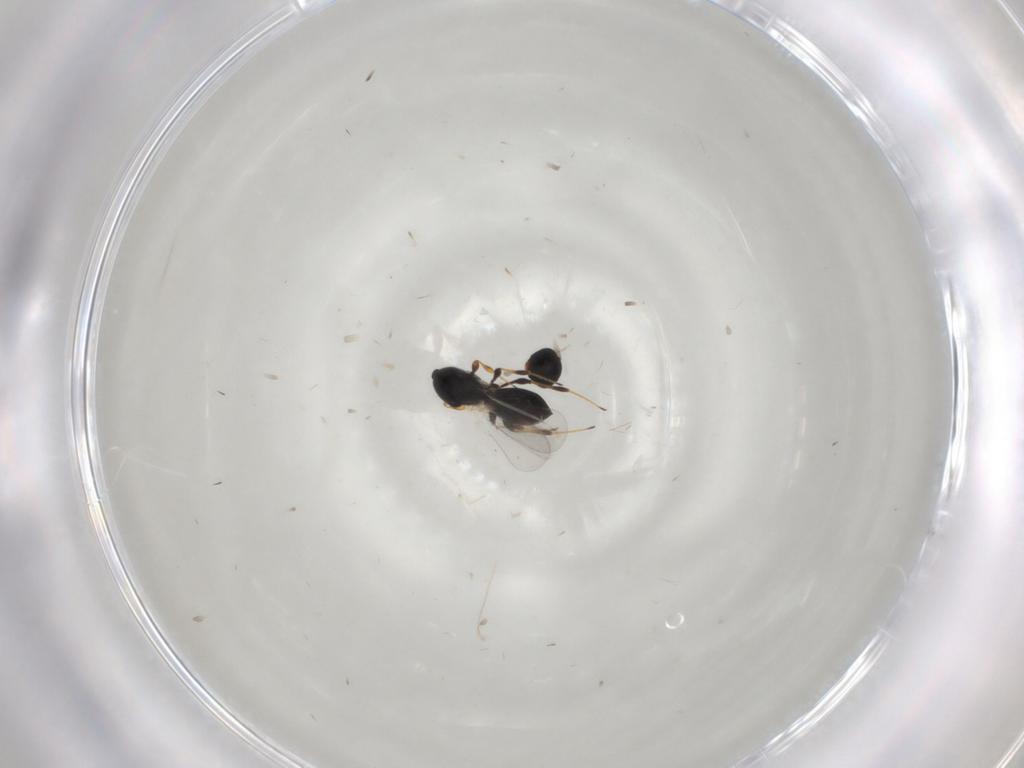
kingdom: Animalia
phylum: Arthropoda
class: Insecta
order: Hymenoptera
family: Platygastridae
